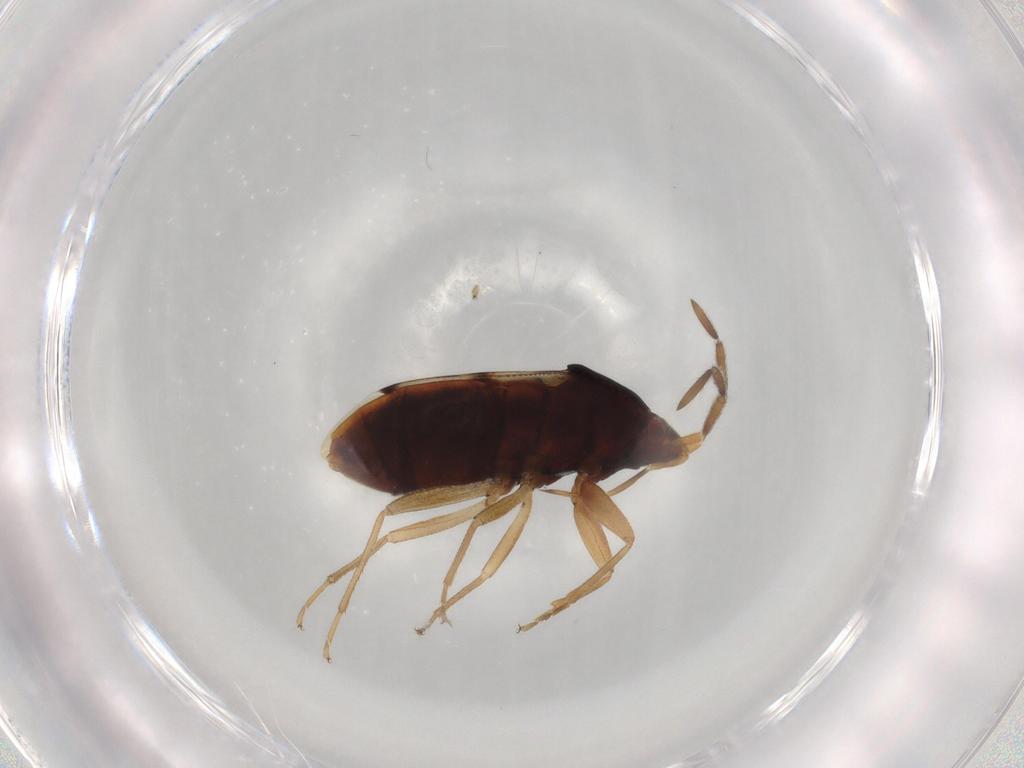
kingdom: Animalia
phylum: Arthropoda
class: Insecta
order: Hemiptera
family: Rhyparochromidae
